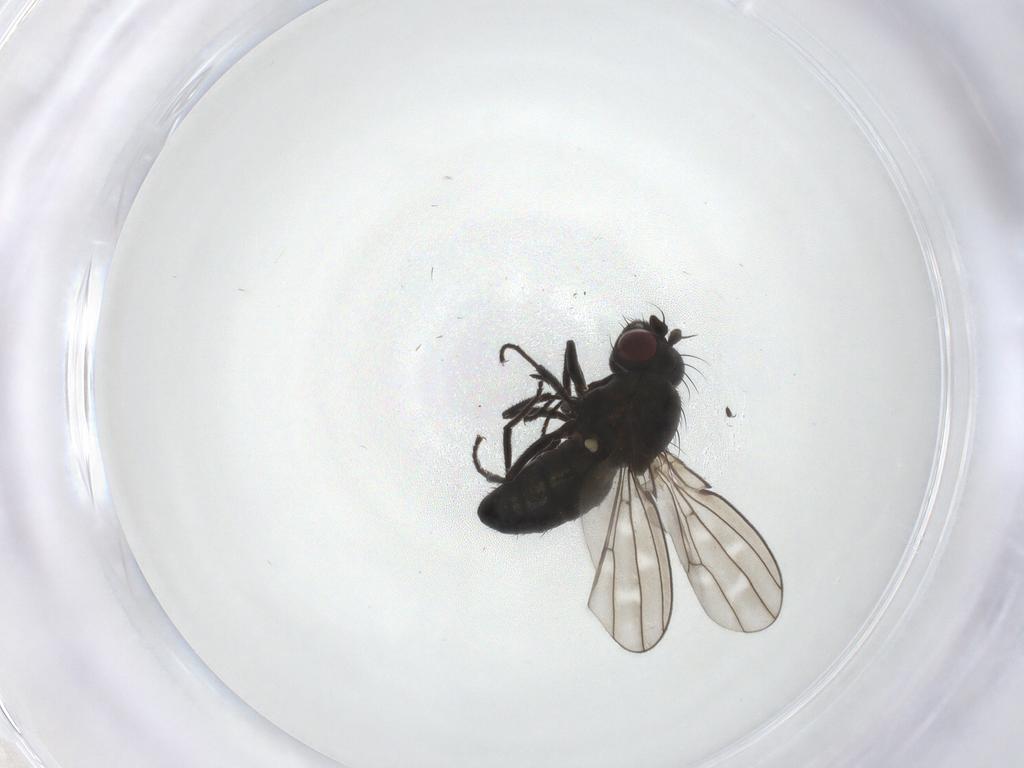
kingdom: Animalia
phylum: Arthropoda
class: Insecta
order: Diptera
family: Ephydridae
